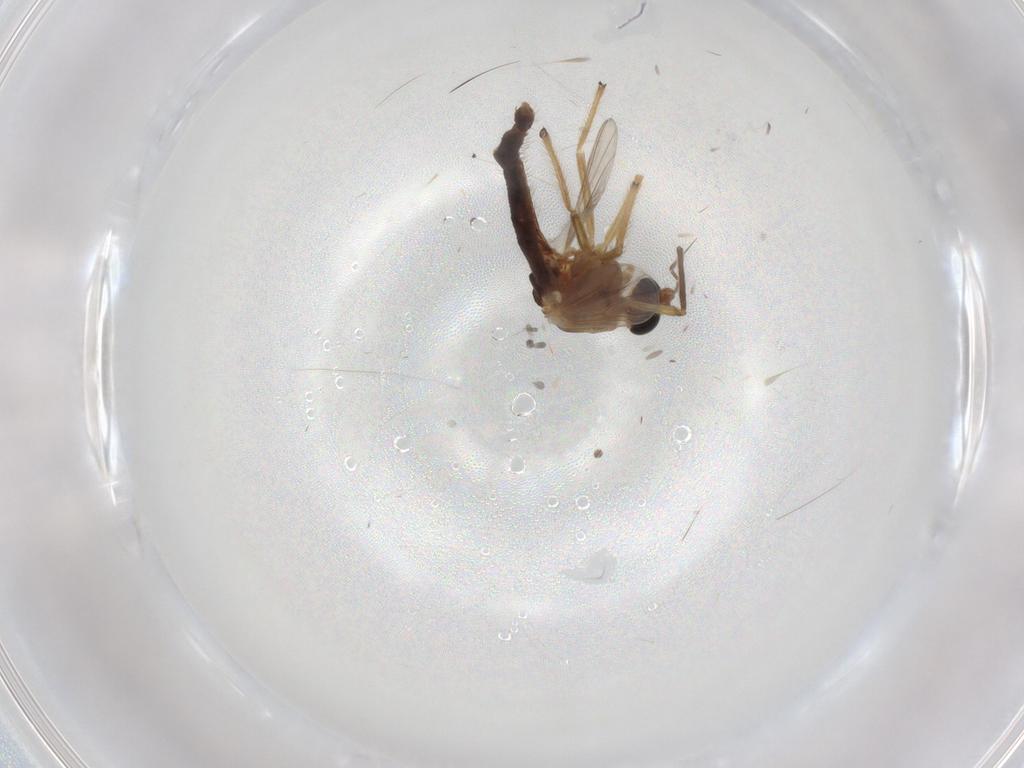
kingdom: Animalia
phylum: Arthropoda
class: Insecta
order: Diptera
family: Chironomidae
